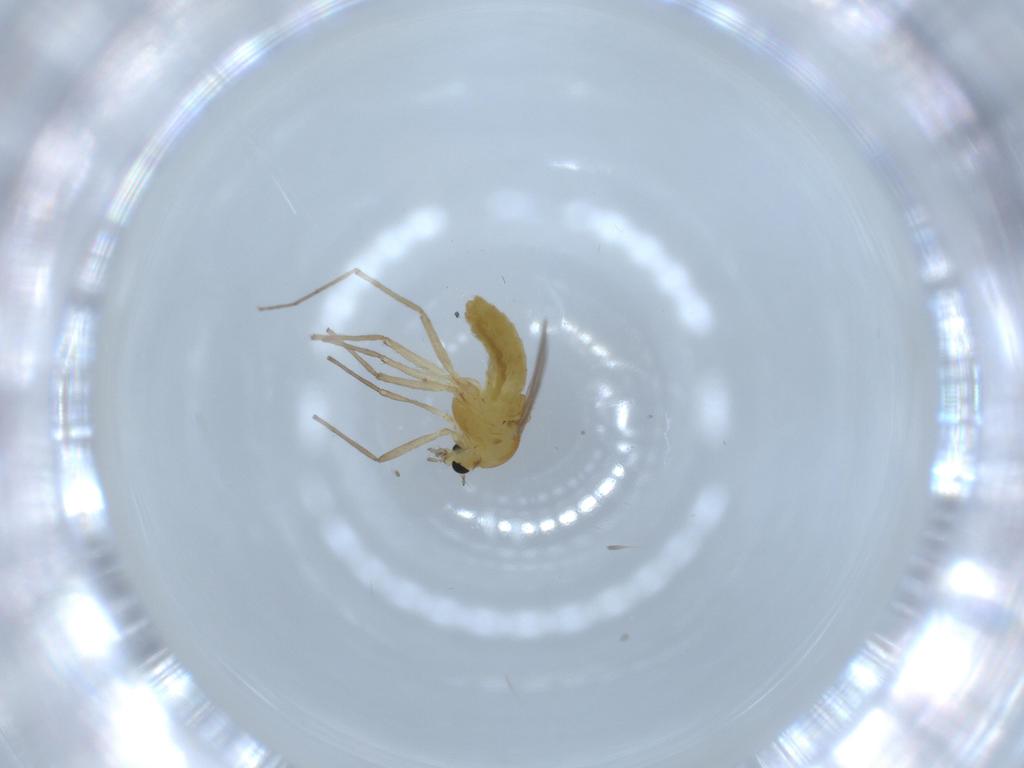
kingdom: Animalia
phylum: Arthropoda
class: Insecta
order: Diptera
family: Chironomidae
